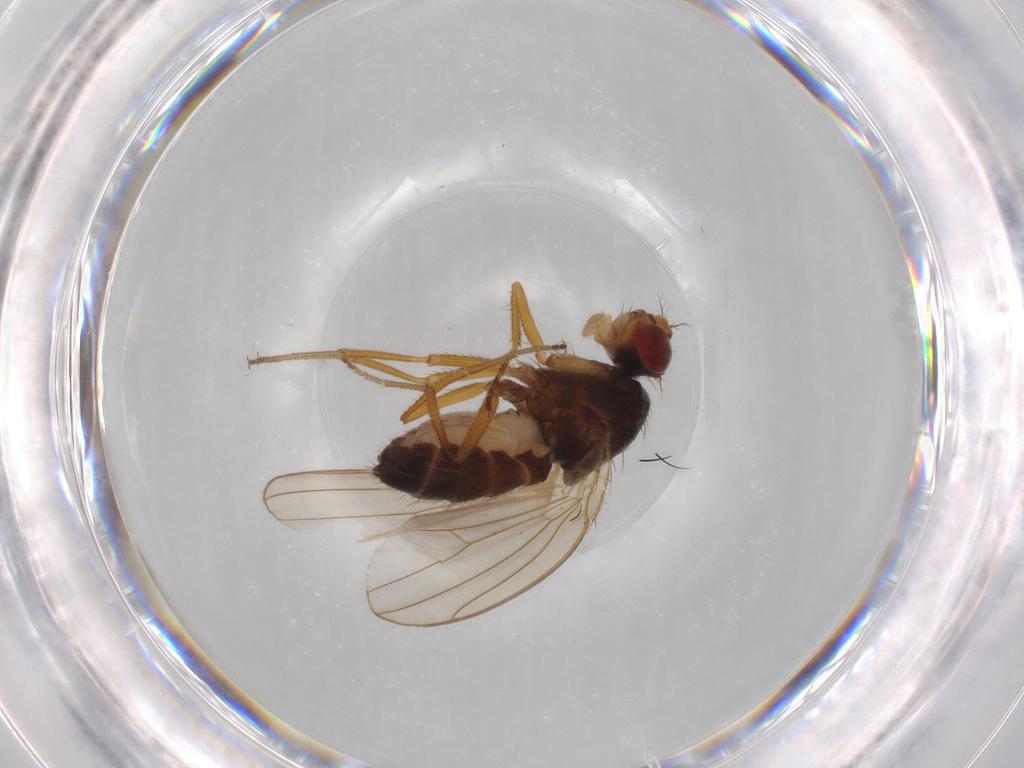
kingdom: Animalia
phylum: Arthropoda
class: Insecta
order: Diptera
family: Drosophilidae
